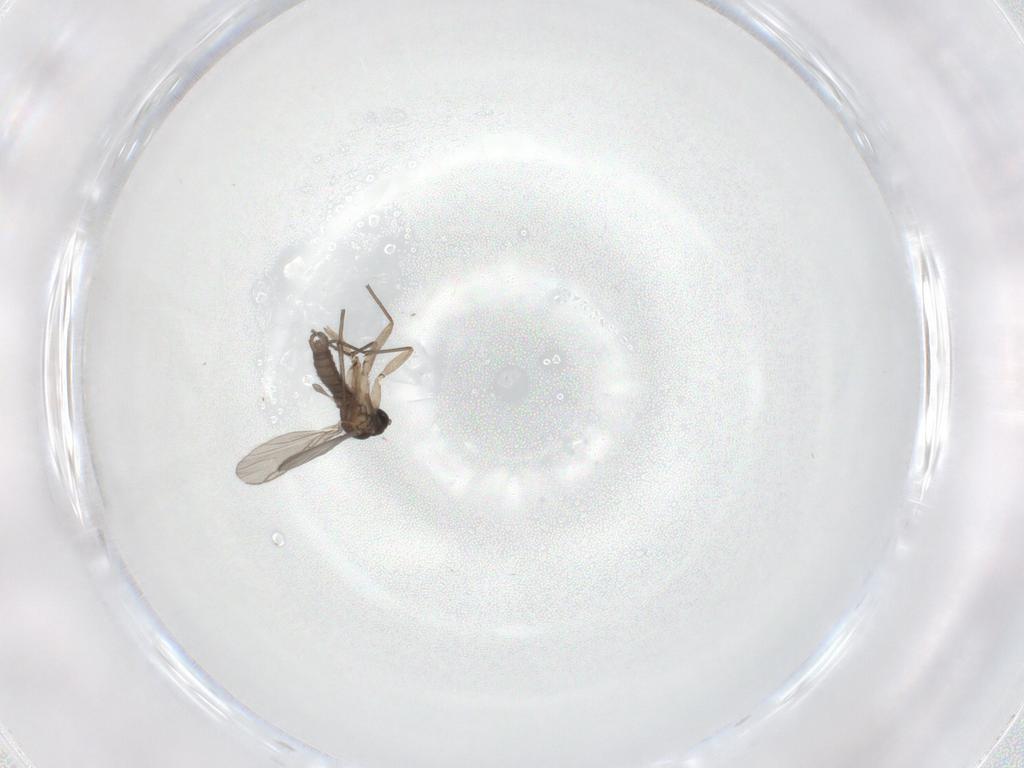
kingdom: Animalia
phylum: Arthropoda
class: Insecta
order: Diptera
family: Sciaridae
